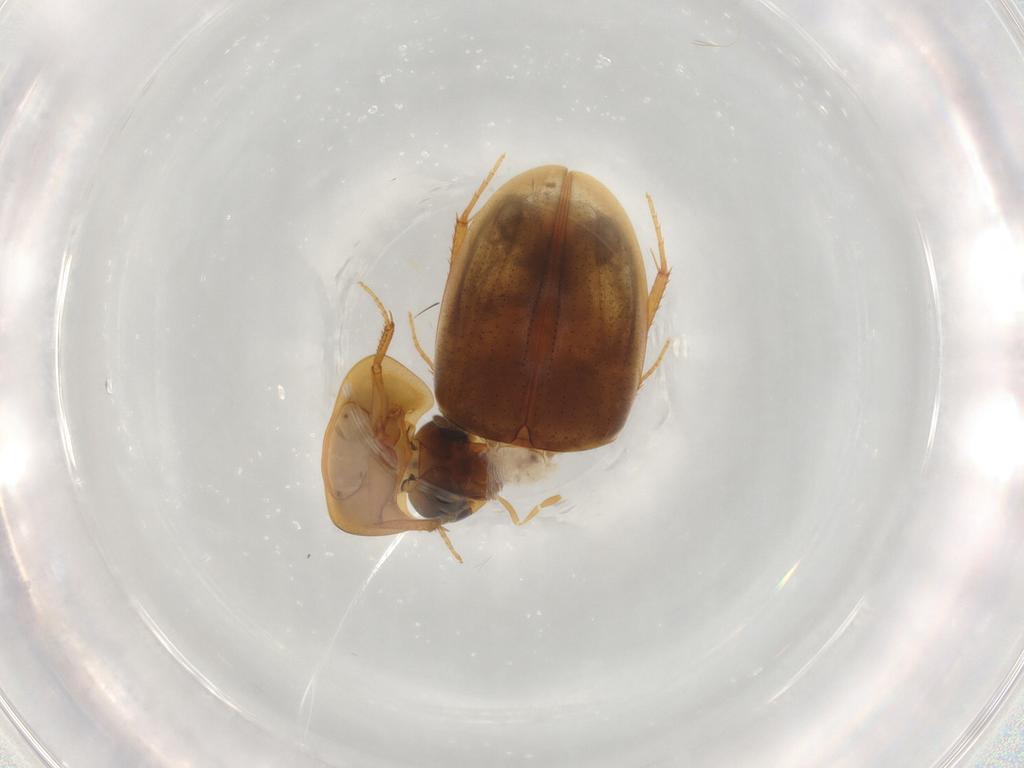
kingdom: Animalia
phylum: Arthropoda
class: Insecta
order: Coleoptera
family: Hydrophilidae
